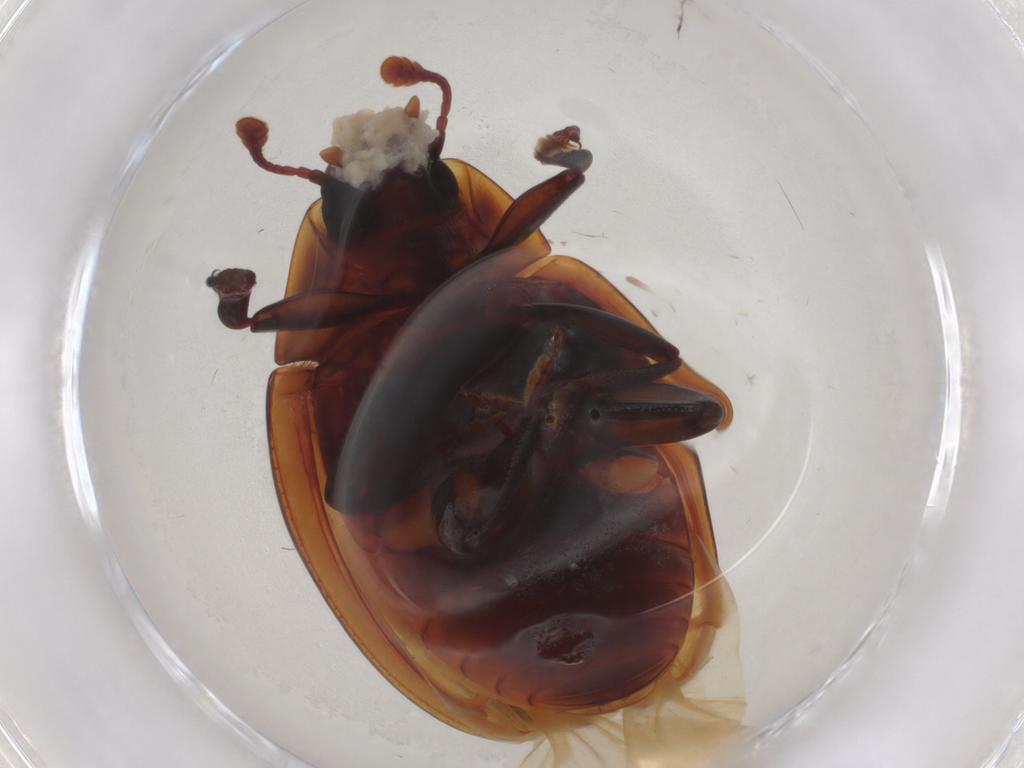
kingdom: Animalia
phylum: Arthropoda
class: Insecta
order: Coleoptera
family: Zopheridae
